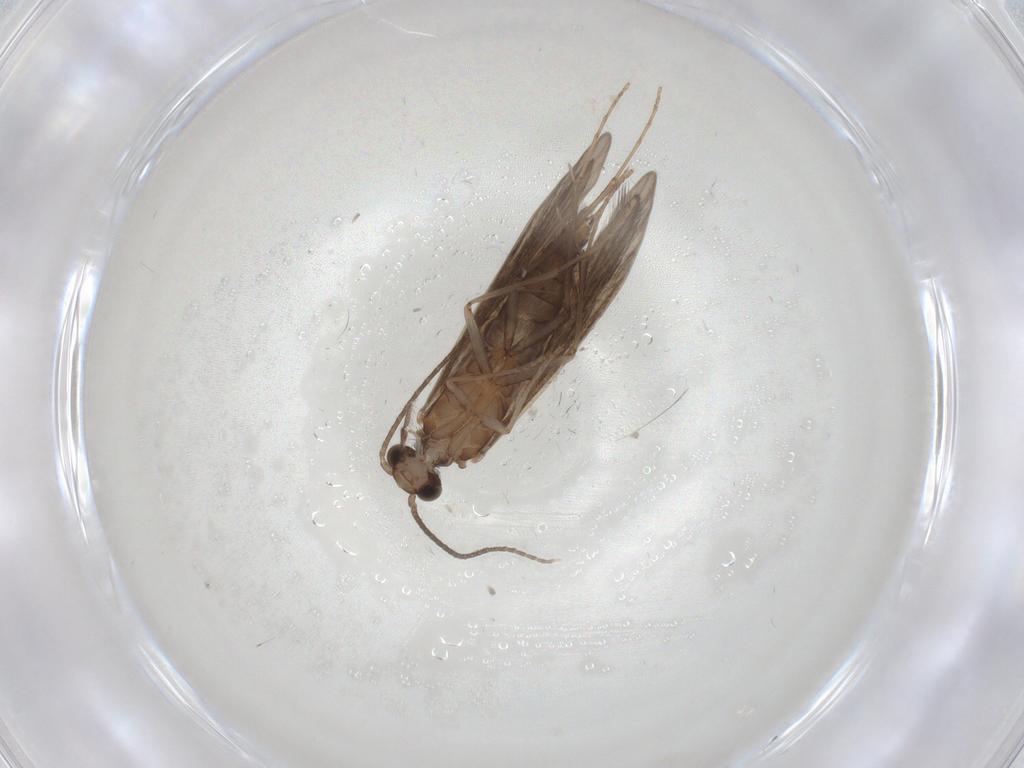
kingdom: Animalia
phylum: Arthropoda
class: Insecta
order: Trichoptera
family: Xiphocentronidae
